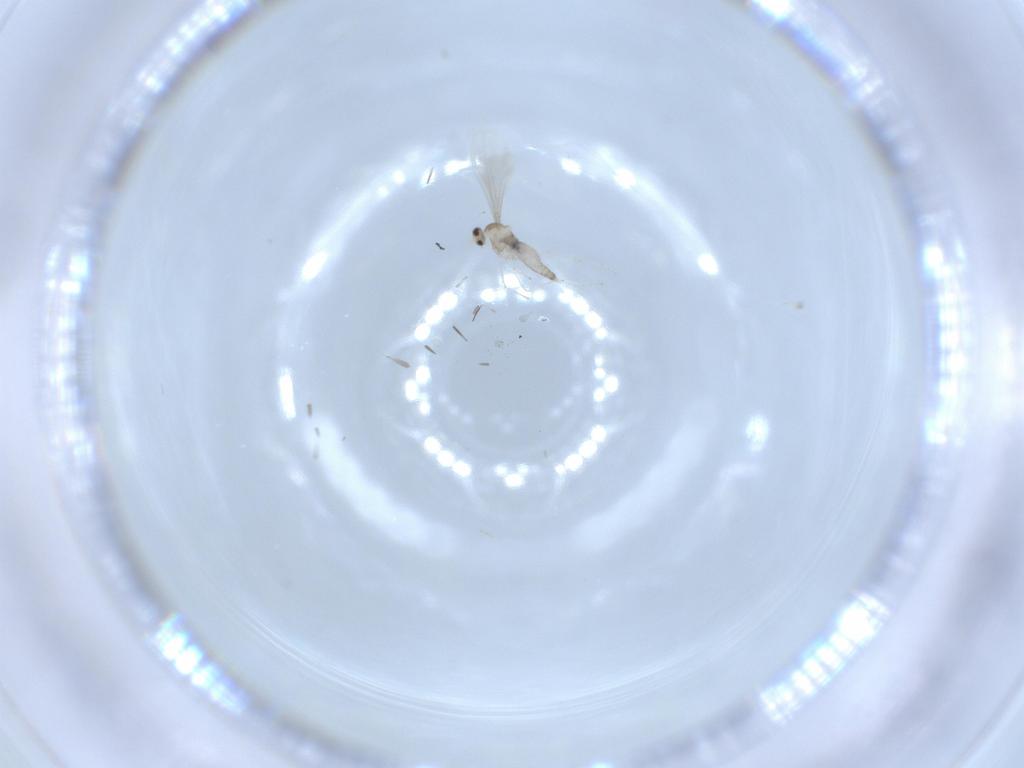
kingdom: Animalia
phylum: Arthropoda
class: Insecta
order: Diptera
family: Cecidomyiidae
